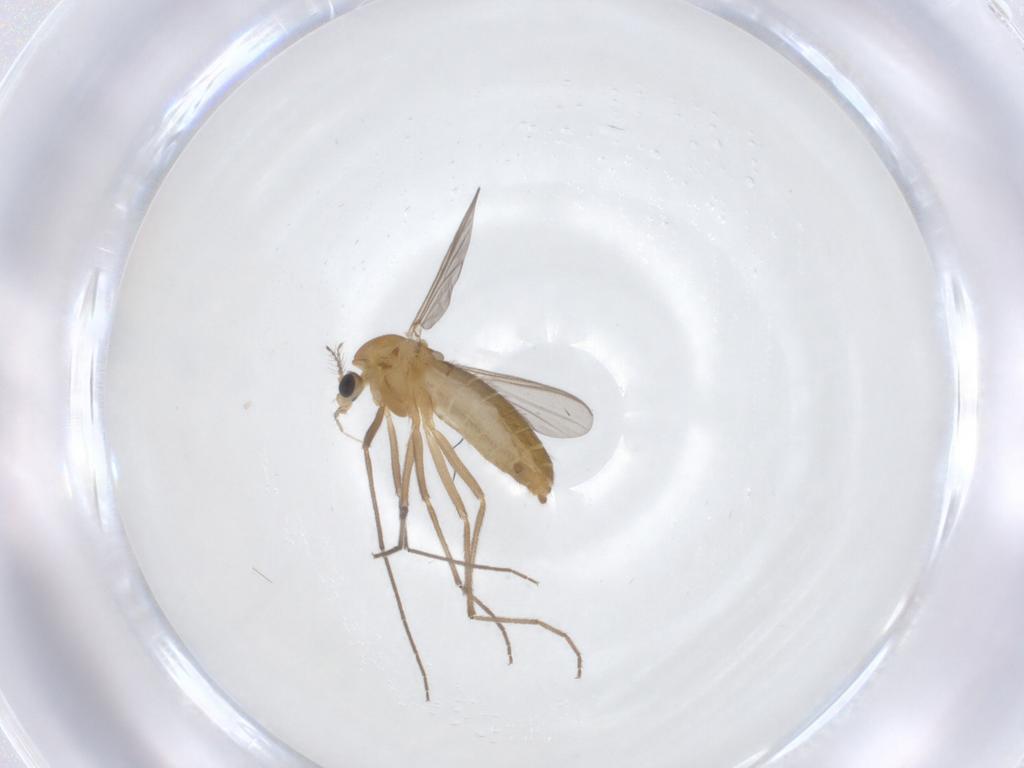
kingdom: Animalia
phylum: Arthropoda
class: Insecta
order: Diptera
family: Chironomidae
